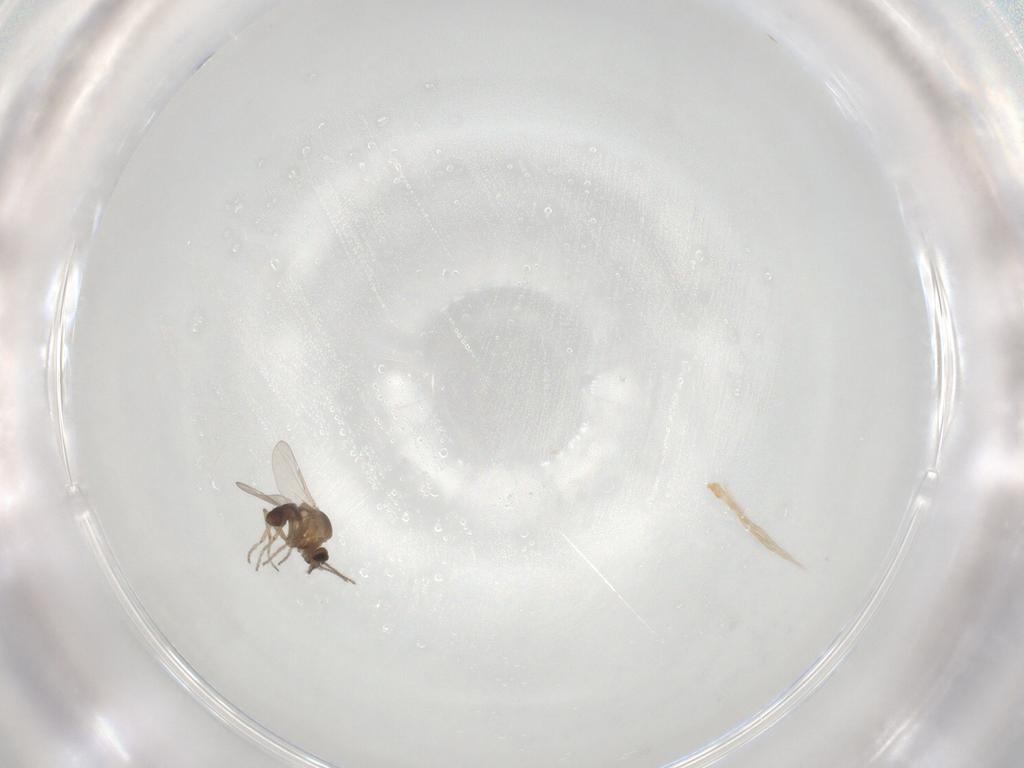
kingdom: Animalia
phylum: Arthropoda
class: Insecta
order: Diptera
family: Ceratopogonidae
